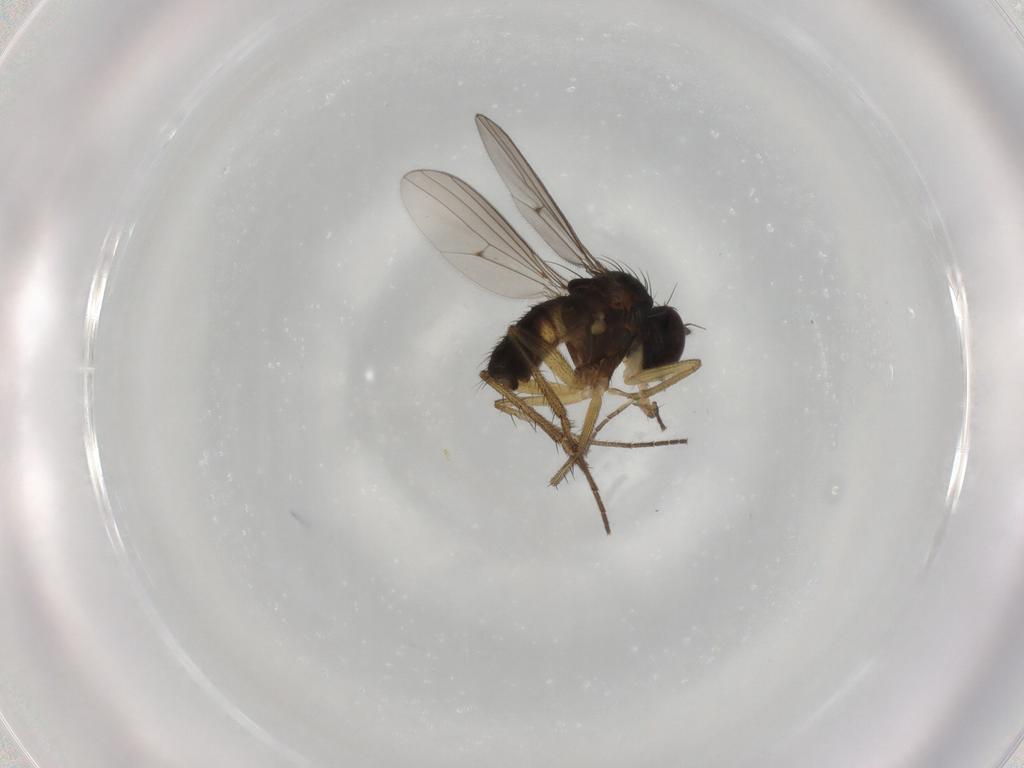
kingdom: Animalia
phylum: Arthropoda
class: Insecta
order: Diptera
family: Dolichopodidae
